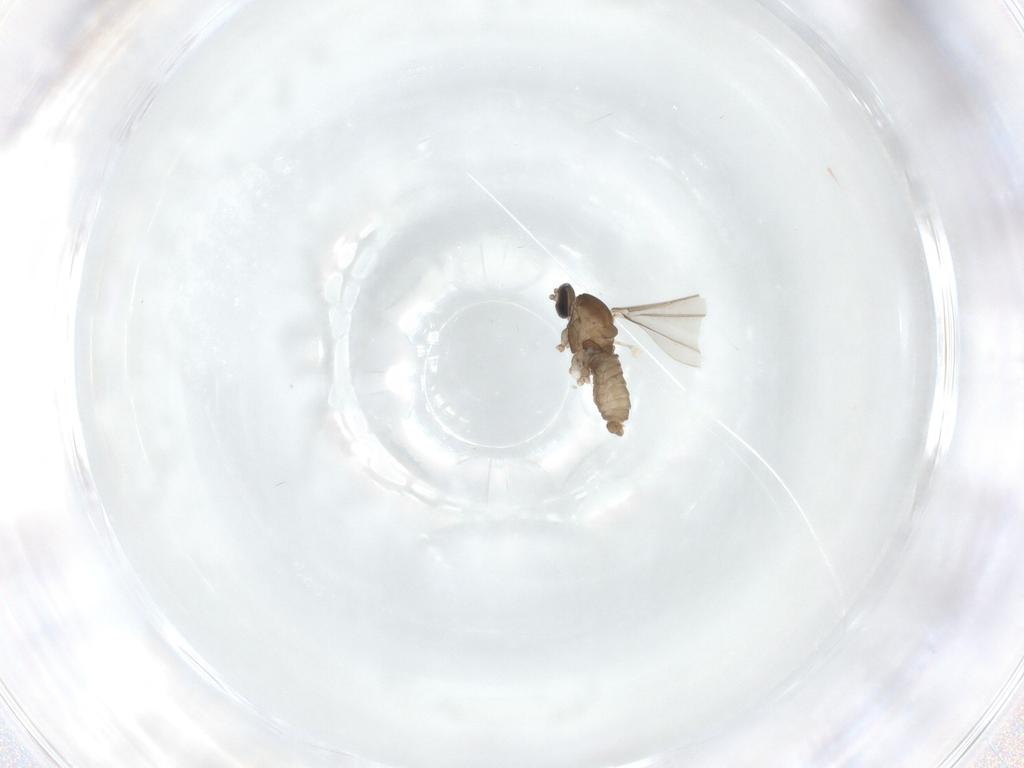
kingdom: Animalia
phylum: Arthropoda
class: Insecta
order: Diptera
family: Cecidomyiidae
